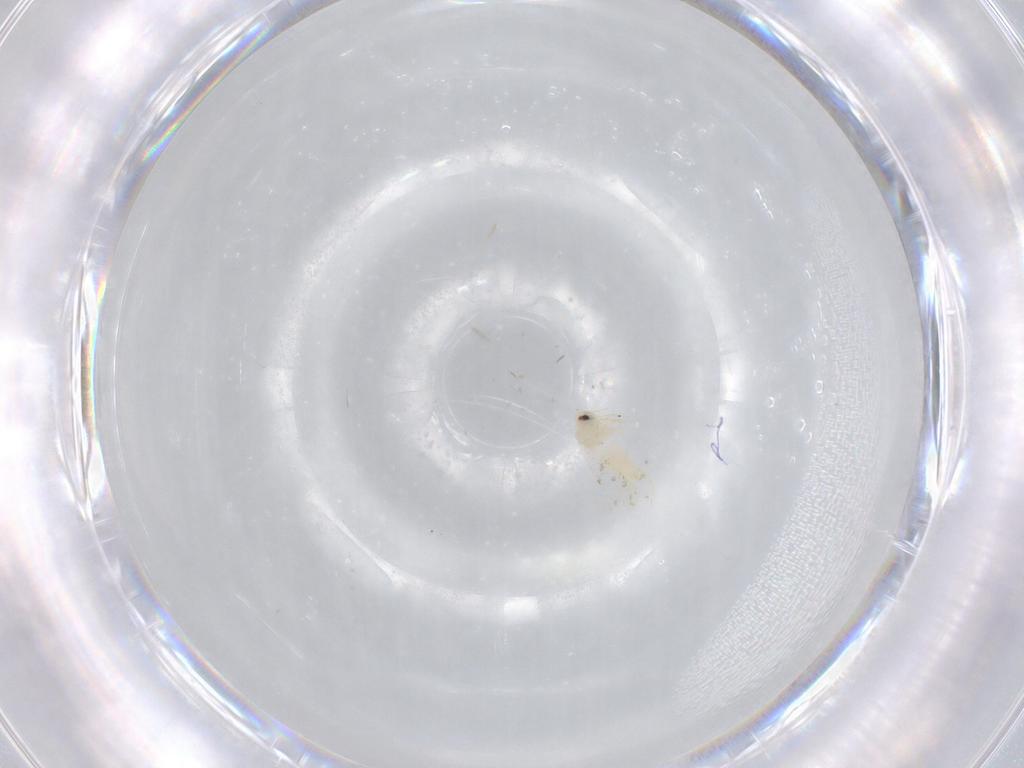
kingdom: Animalia
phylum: Arthropoda
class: Insecta
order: Hemiptera
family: Aleyrodidae
